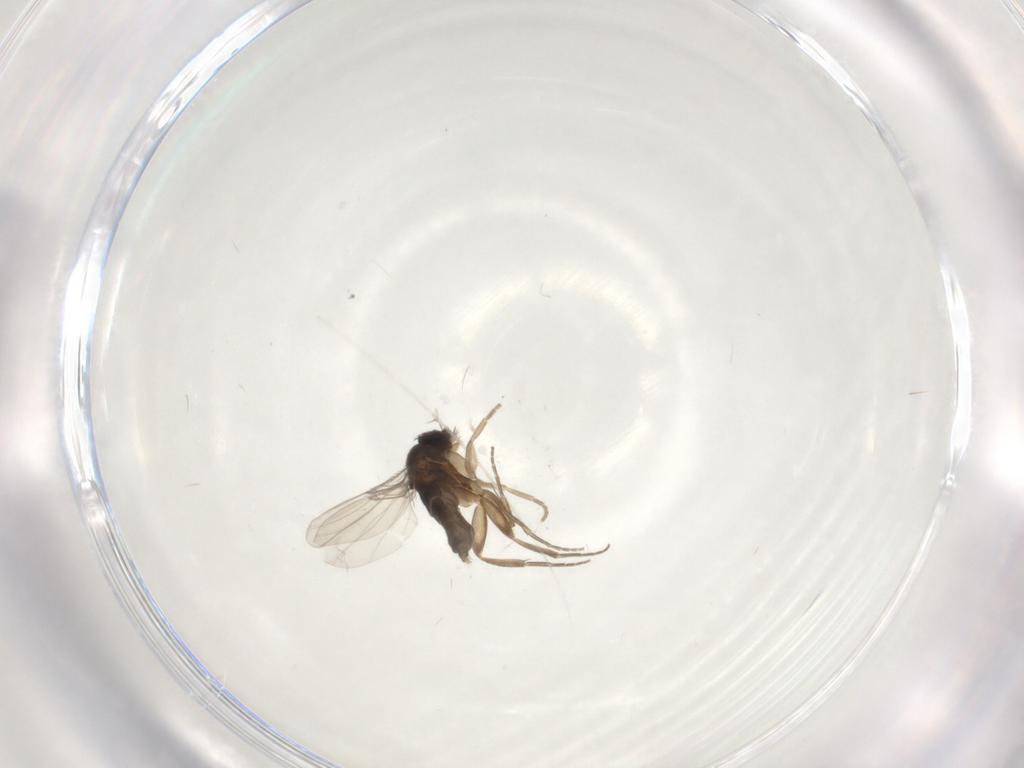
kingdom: Animalia
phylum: Arthropoda
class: Insecta
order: Diptera
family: Phoridae
